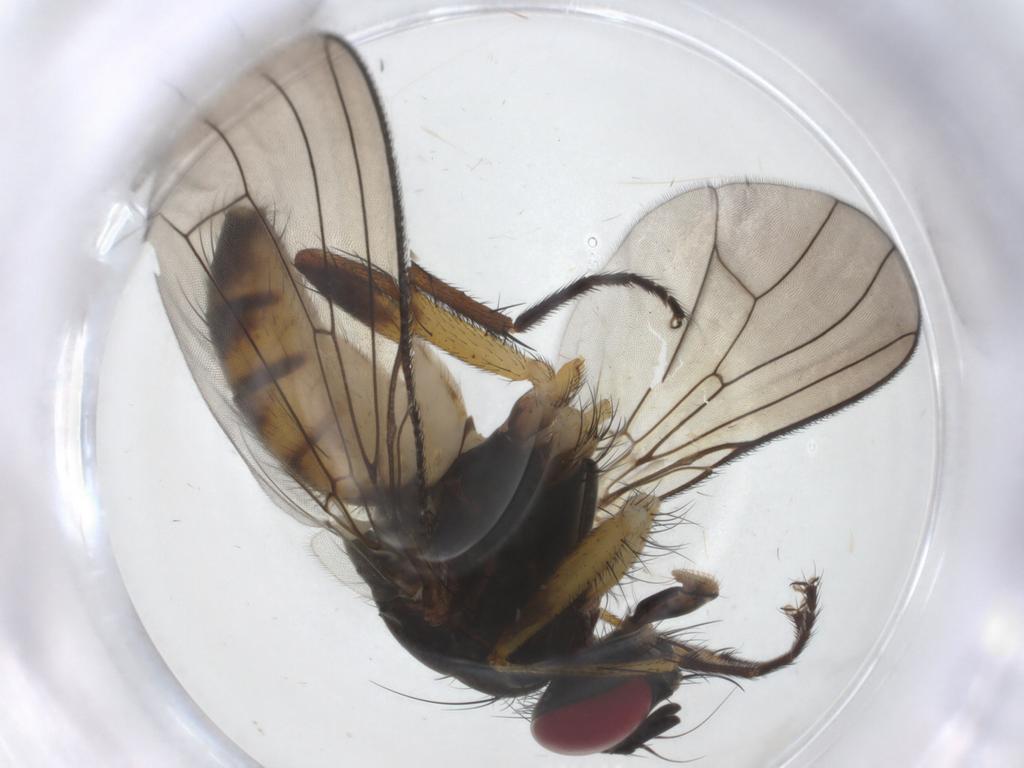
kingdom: Animalia
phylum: Arthropoda
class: Insecta
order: Diptera
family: Muscidae
